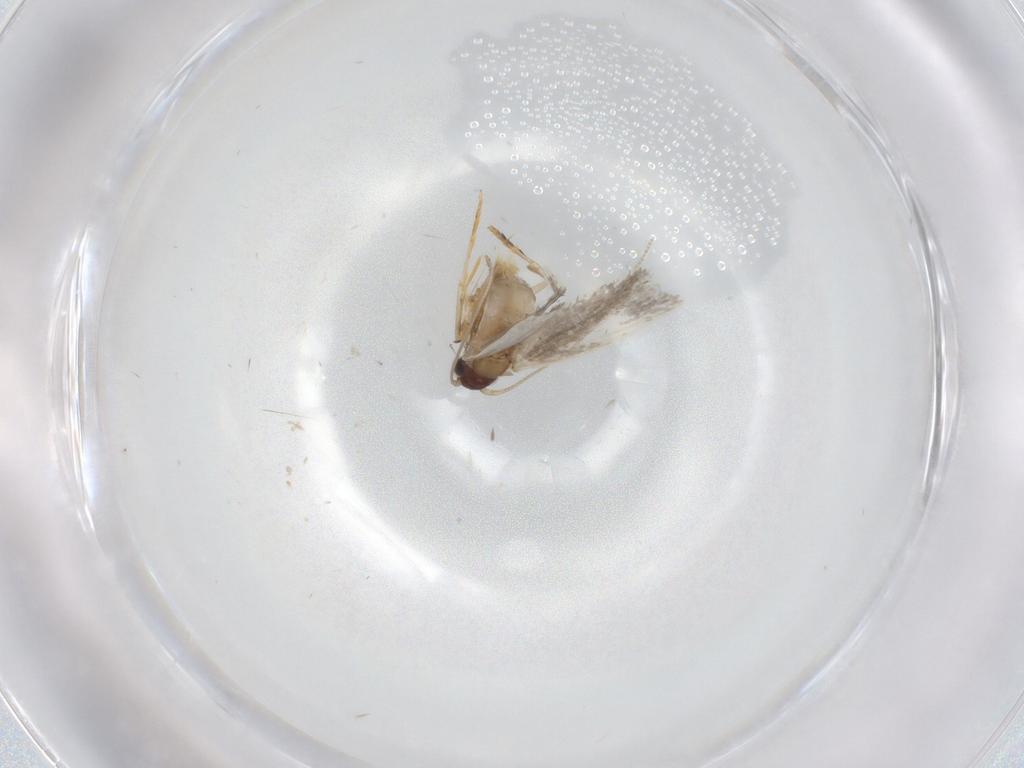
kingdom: Animalia
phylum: Arthropoda
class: Insecta
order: Lepidoptera
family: Tineidae
